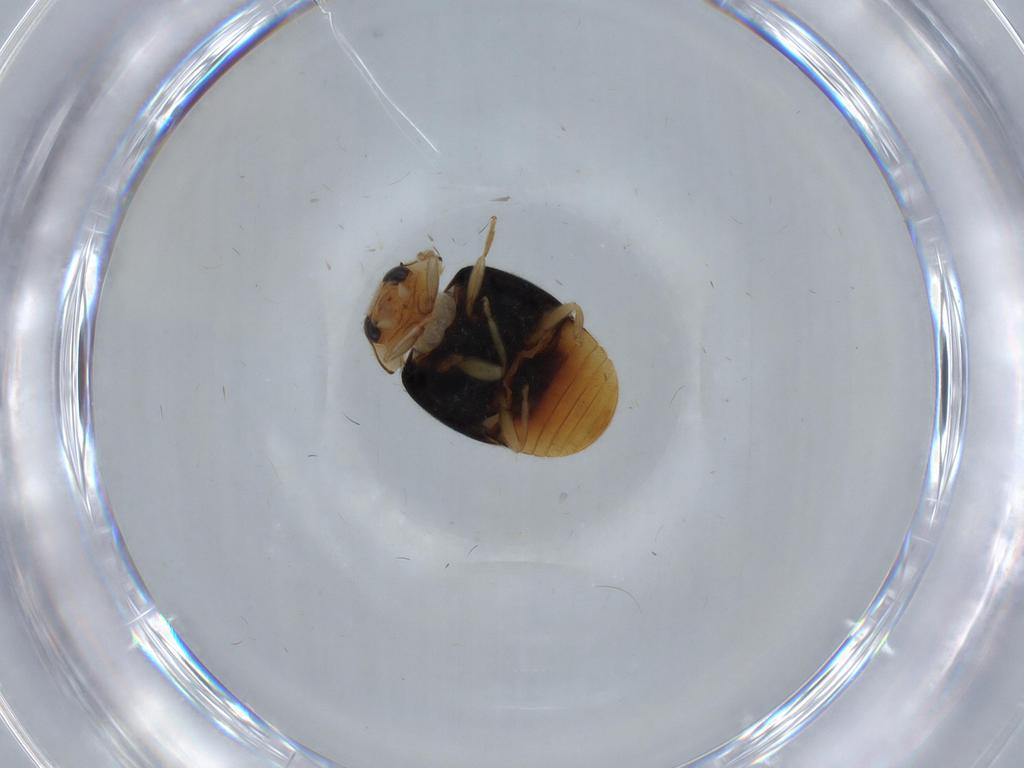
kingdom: Animalia
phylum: Arthropoda
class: Insecta
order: Coleoptera
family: Coccinellidae
